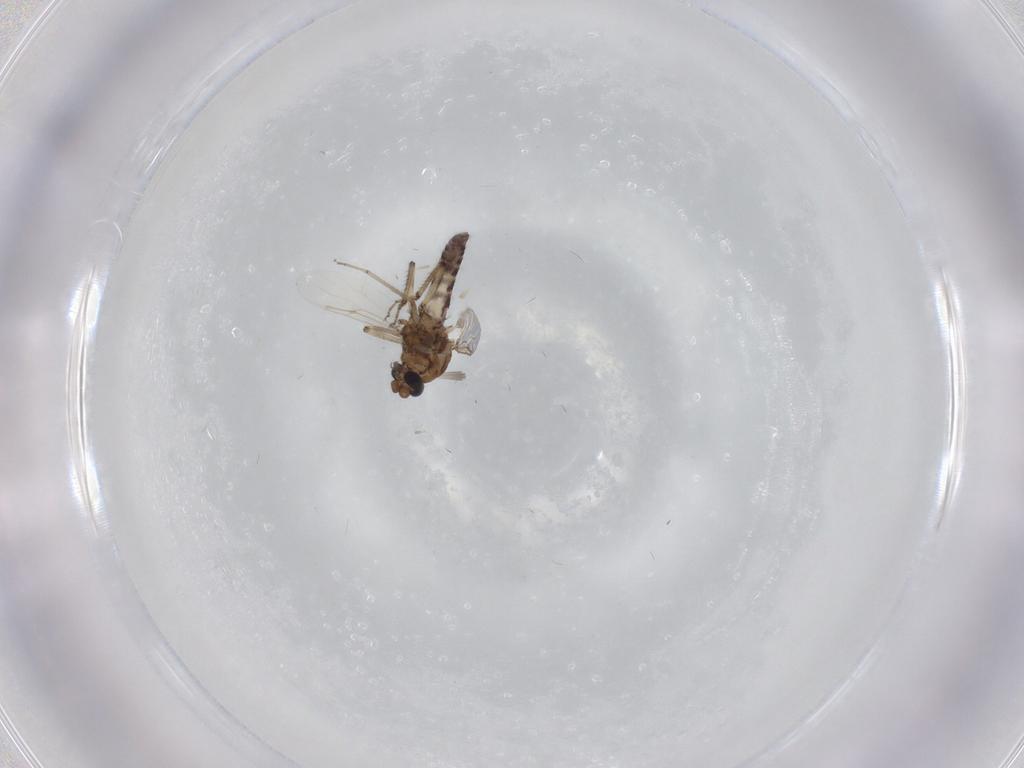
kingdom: Animalia
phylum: Arthropoda
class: Insecta
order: Diptera
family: Ceratopogonidae
